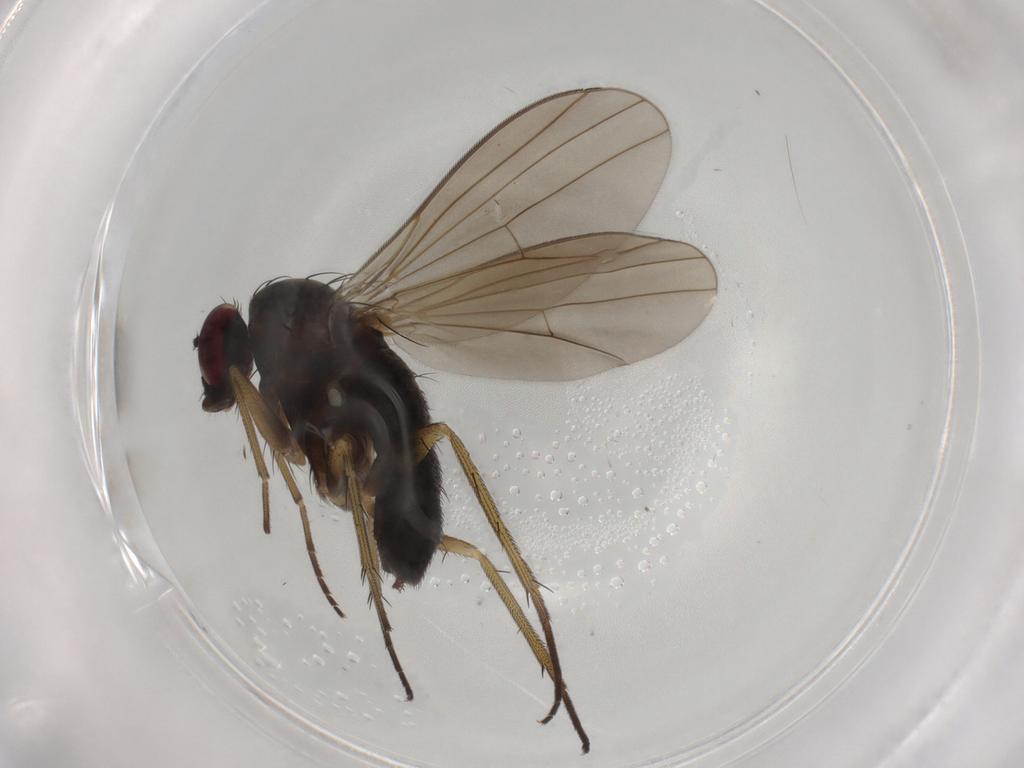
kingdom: Animalia
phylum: Arthropoda
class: Insecta
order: Diptera
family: Dolichopodidae
